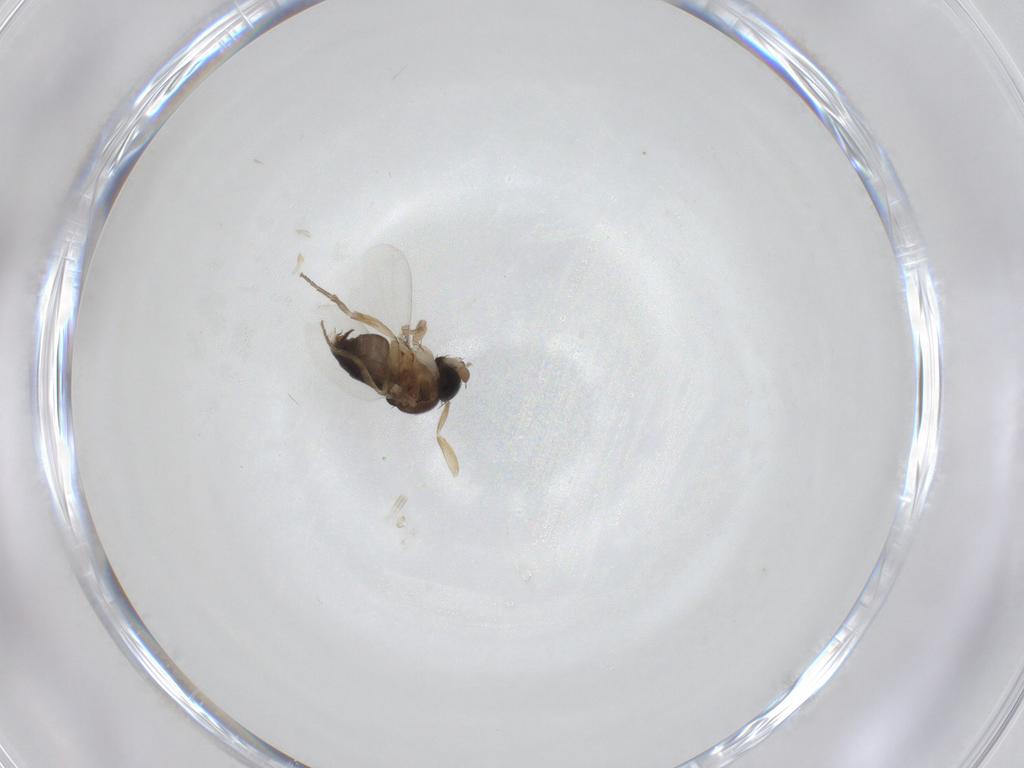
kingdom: Animalia
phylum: Arthropoda
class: Insecta
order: Diptera
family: Phoridae
